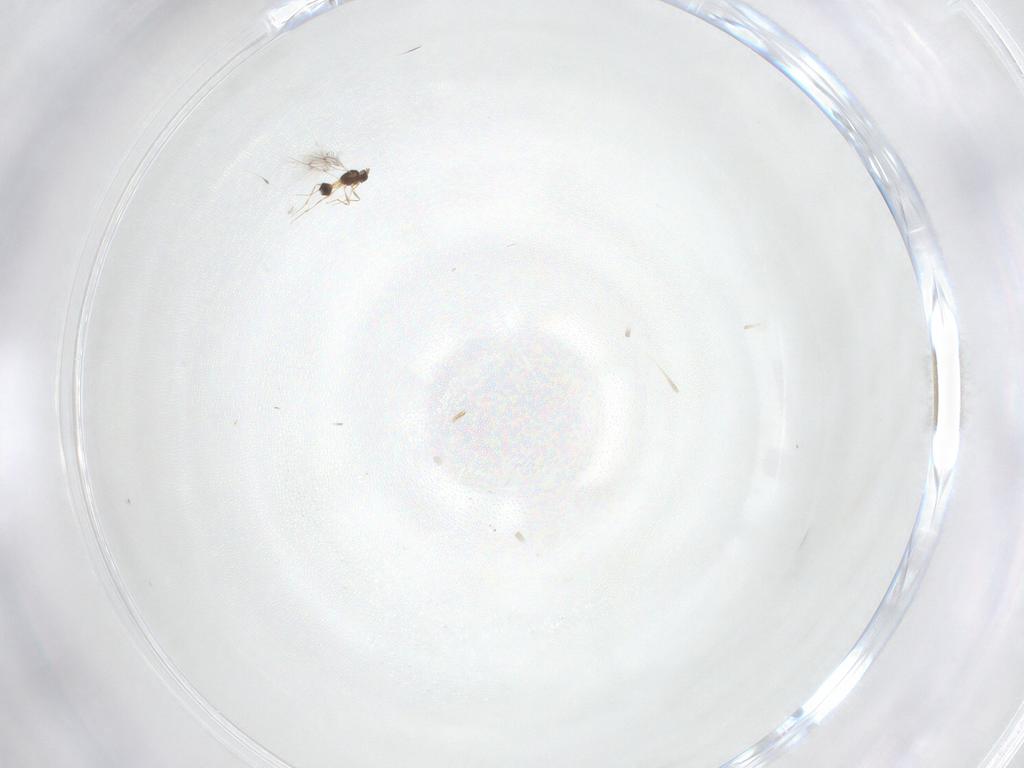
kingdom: Animalia
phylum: Arthropoda
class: Insecta
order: Hymenoptera
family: Mymarommatidae
